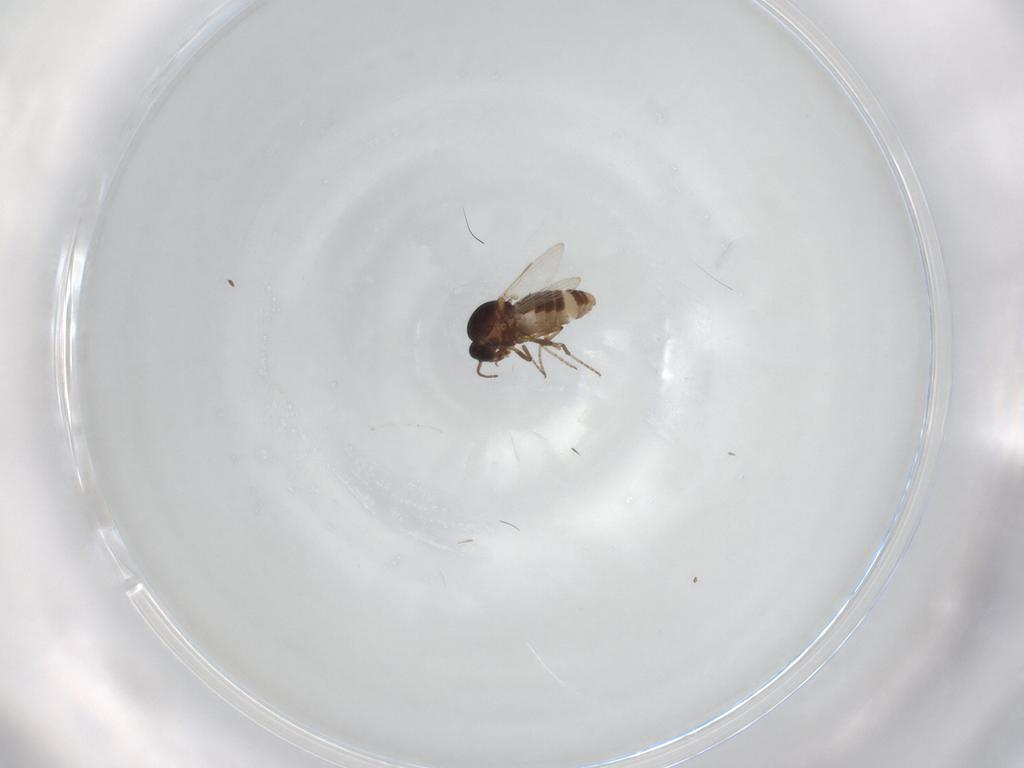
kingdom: Animalia
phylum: Arthropoda
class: Insecta
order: Diptera
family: Ceratopogonidae
